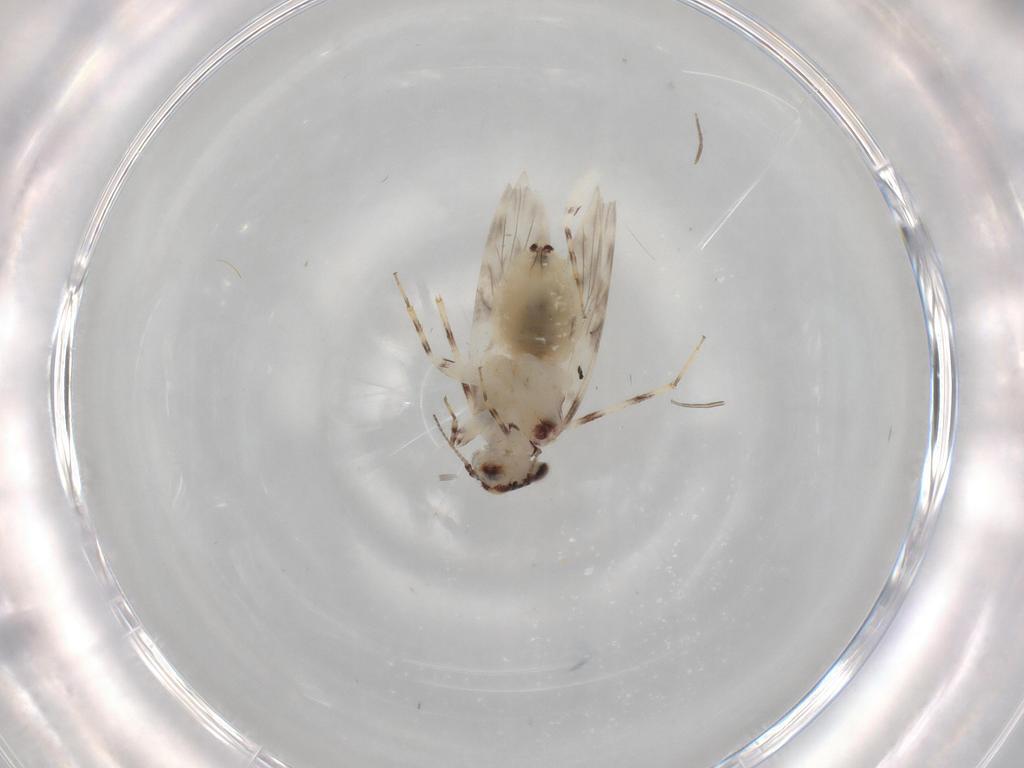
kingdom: Animalia
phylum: Arthropoda
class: Insecta
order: Psocodea
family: Lepidopsocidae
